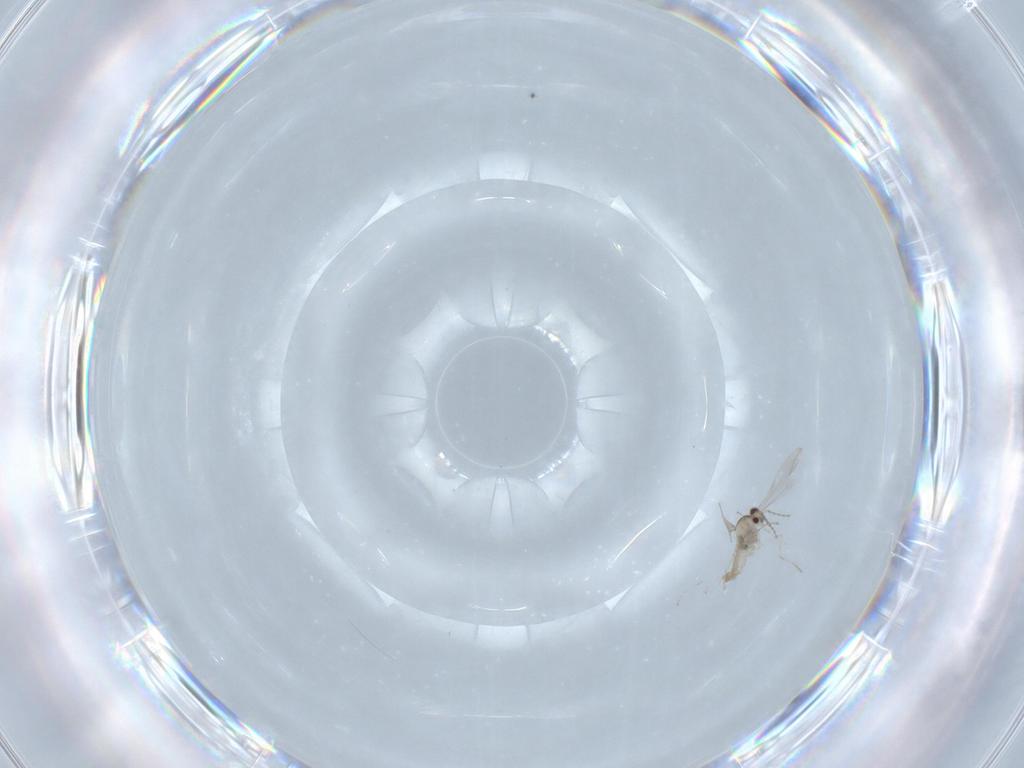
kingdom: Animalia
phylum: Arthropoda
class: Insecta
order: Diptera
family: Cecidomyiidae
